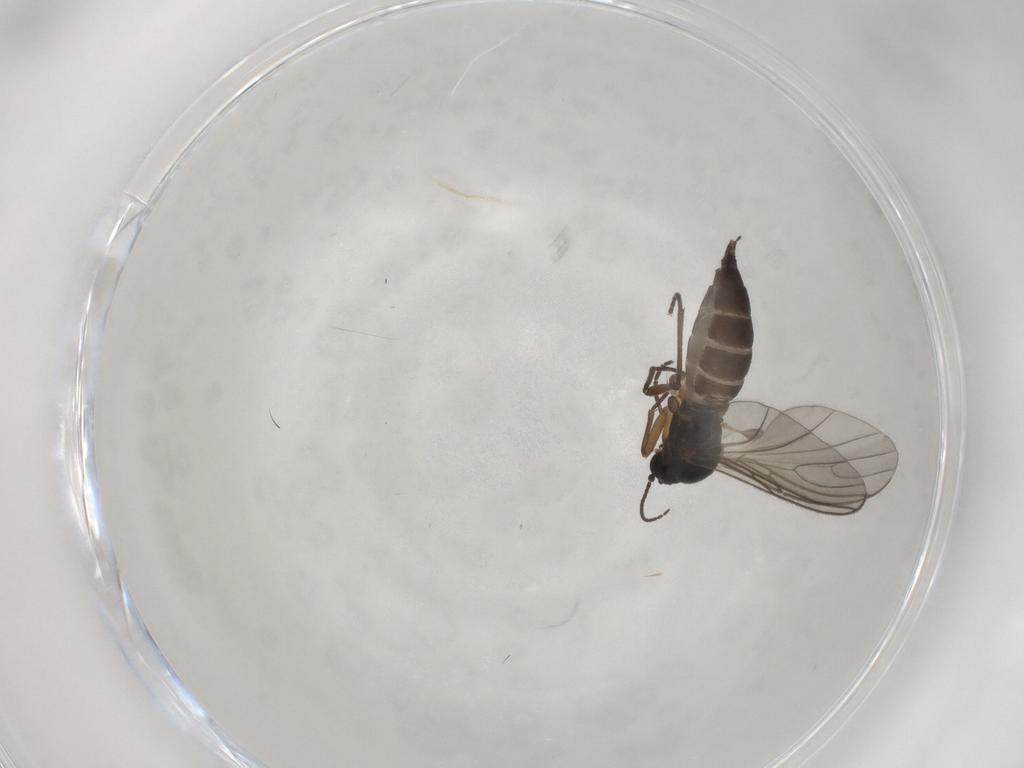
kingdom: Animalia
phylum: Arthropoda
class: Insecta
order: Diptera
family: Sciaridae
